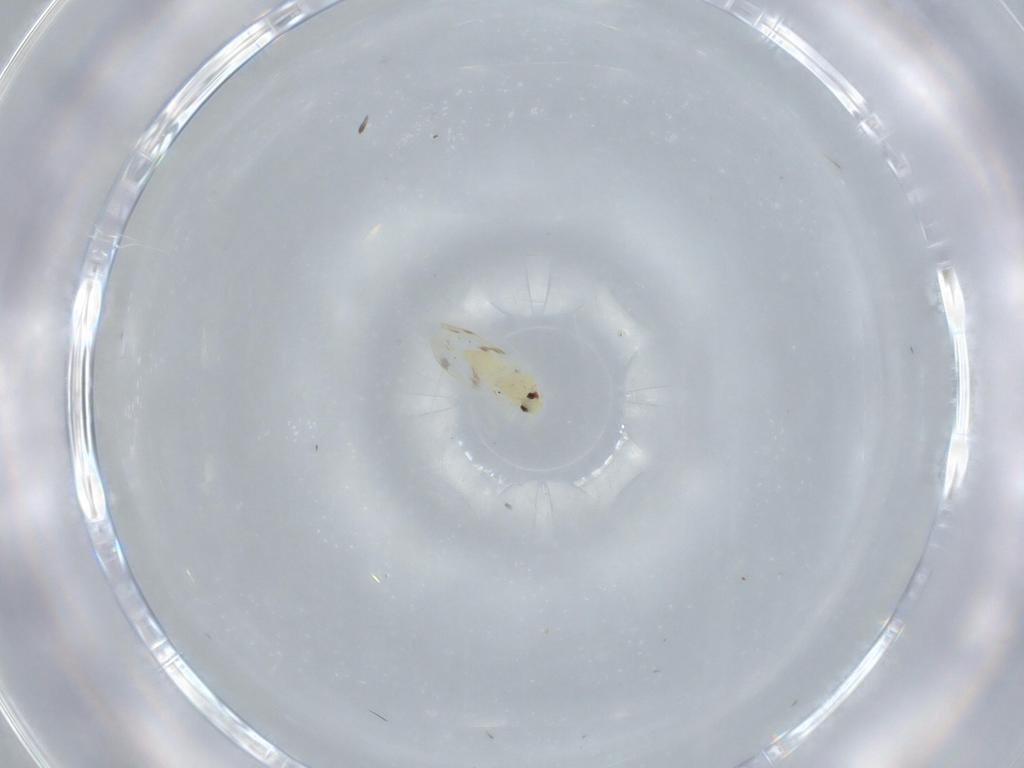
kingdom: Animalia
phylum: Arthropoda
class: Insecta
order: Hemiptera
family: Aleyrodidae
